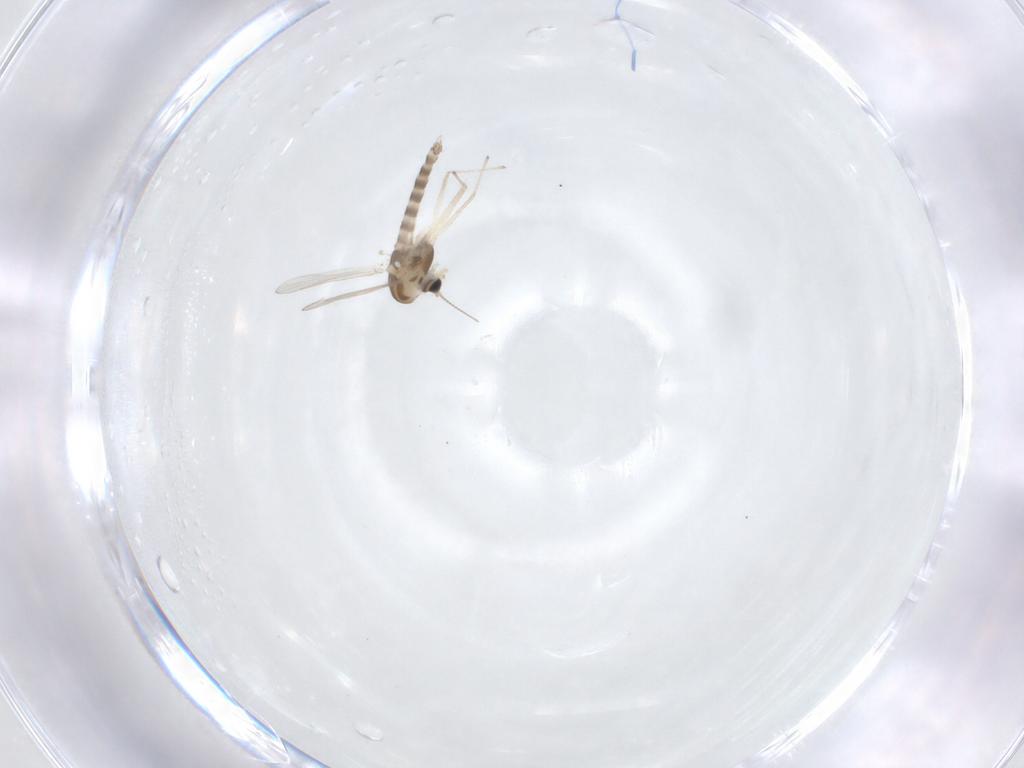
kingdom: Animalia
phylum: Arthropoda
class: Insecta
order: Diptera
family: Chironomidae
